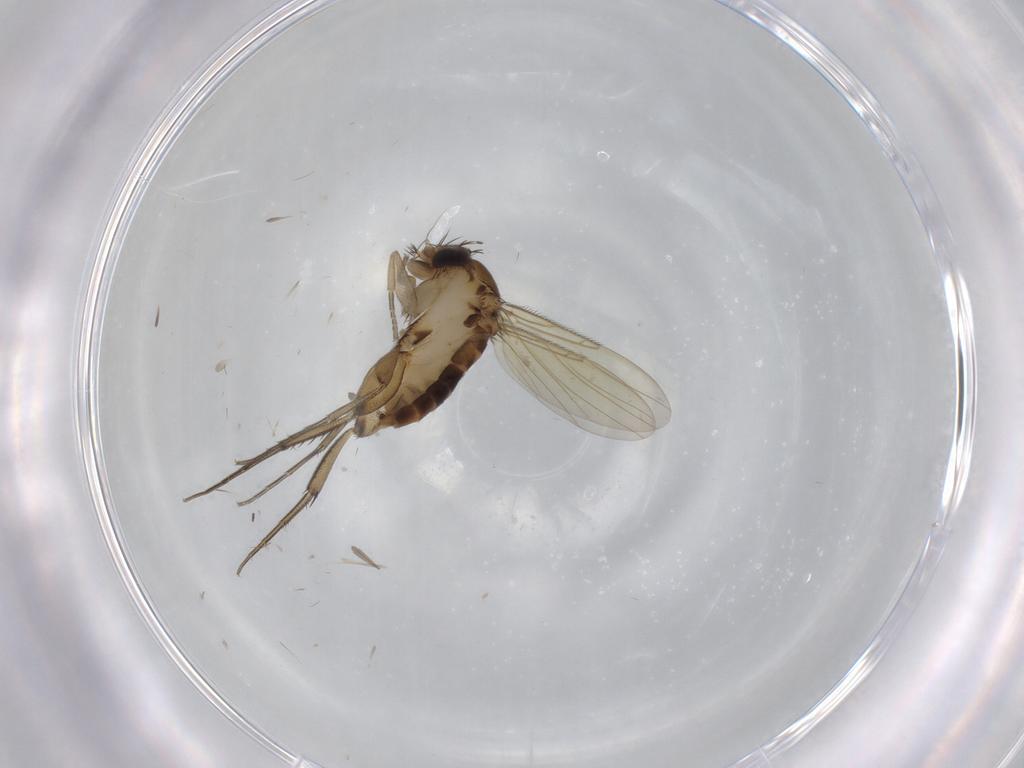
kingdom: Animalia
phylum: Arthropoda
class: Insecta
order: Diptera
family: Phoridae
